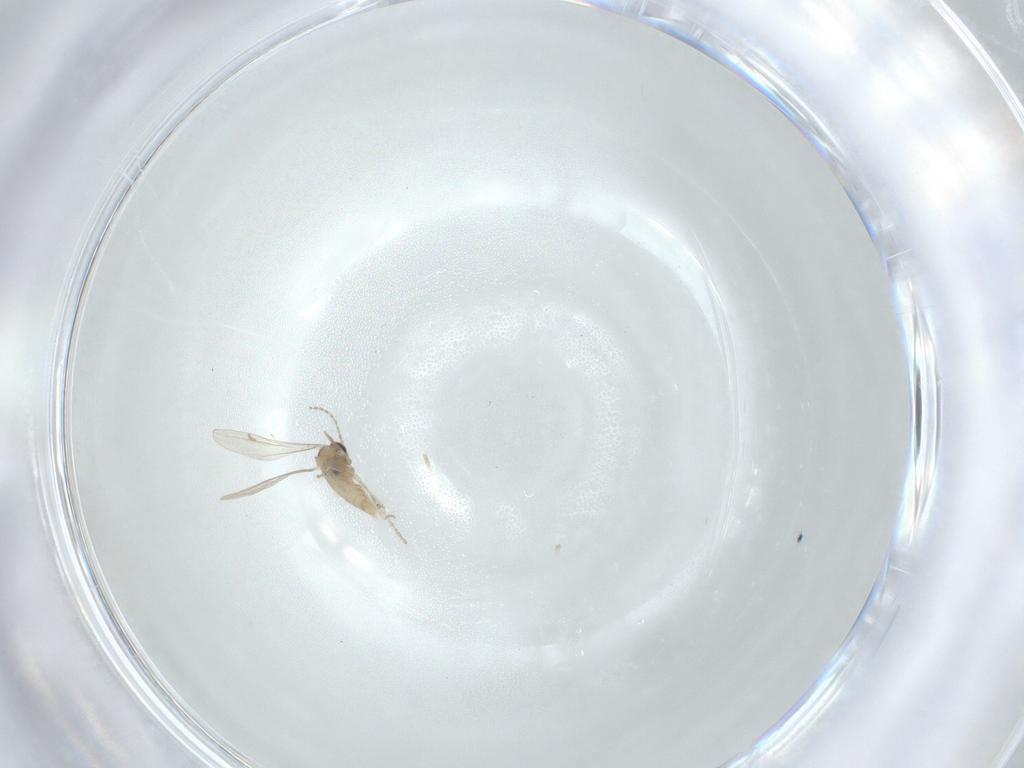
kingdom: Animalia
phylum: Arthropoda
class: Insecta
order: Diptera
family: Cecidomyiidae
